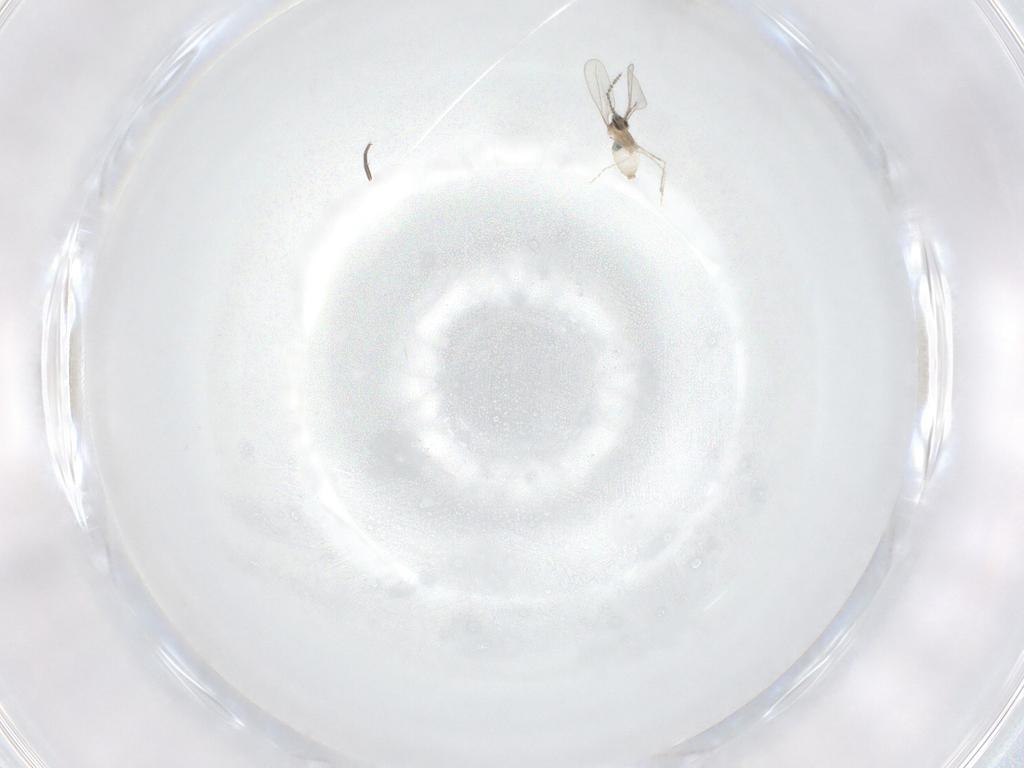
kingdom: Animalia
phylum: Arthropoda
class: Insecta
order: Diptera
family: Cecidomyiidae
